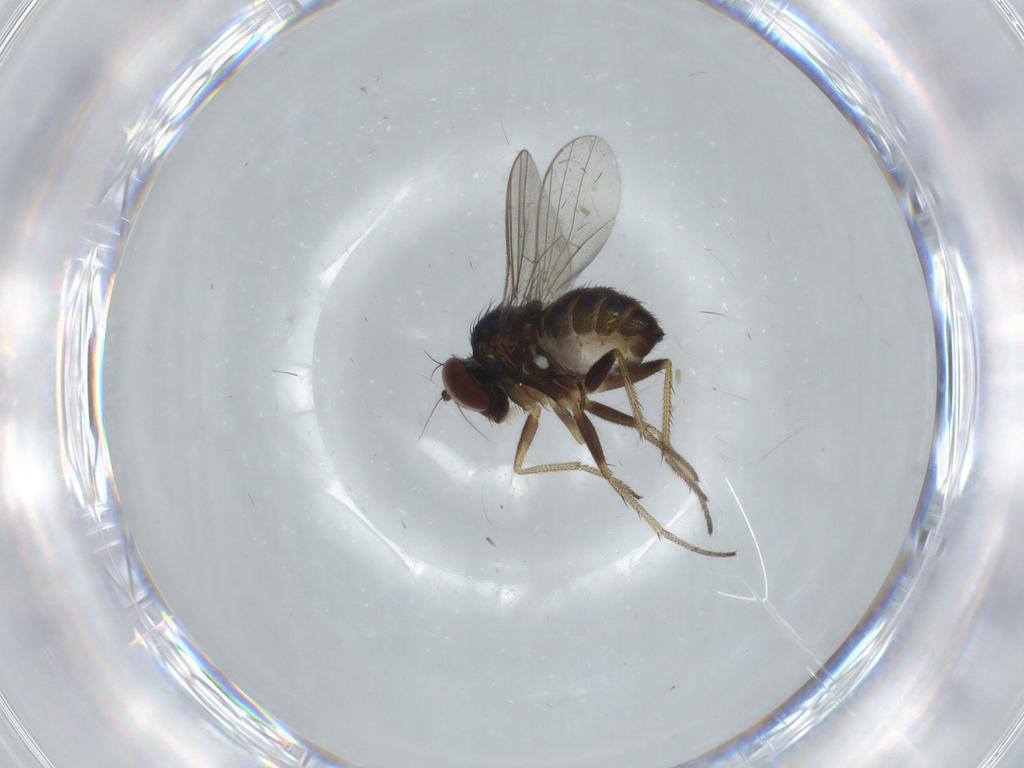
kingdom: Animalia
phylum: Arthropoda
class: Insecta
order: Diptera
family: Dolichopodidae
